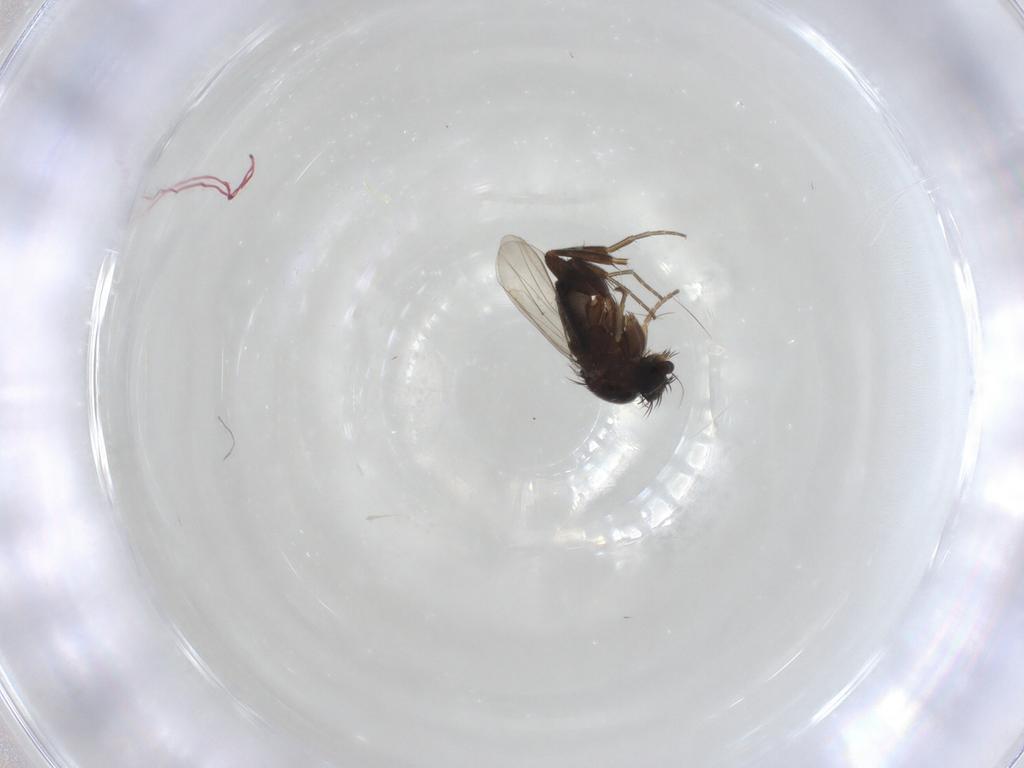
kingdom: Animalia
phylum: Arthropoda
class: Insecta
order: Diptera
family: Phoridae
